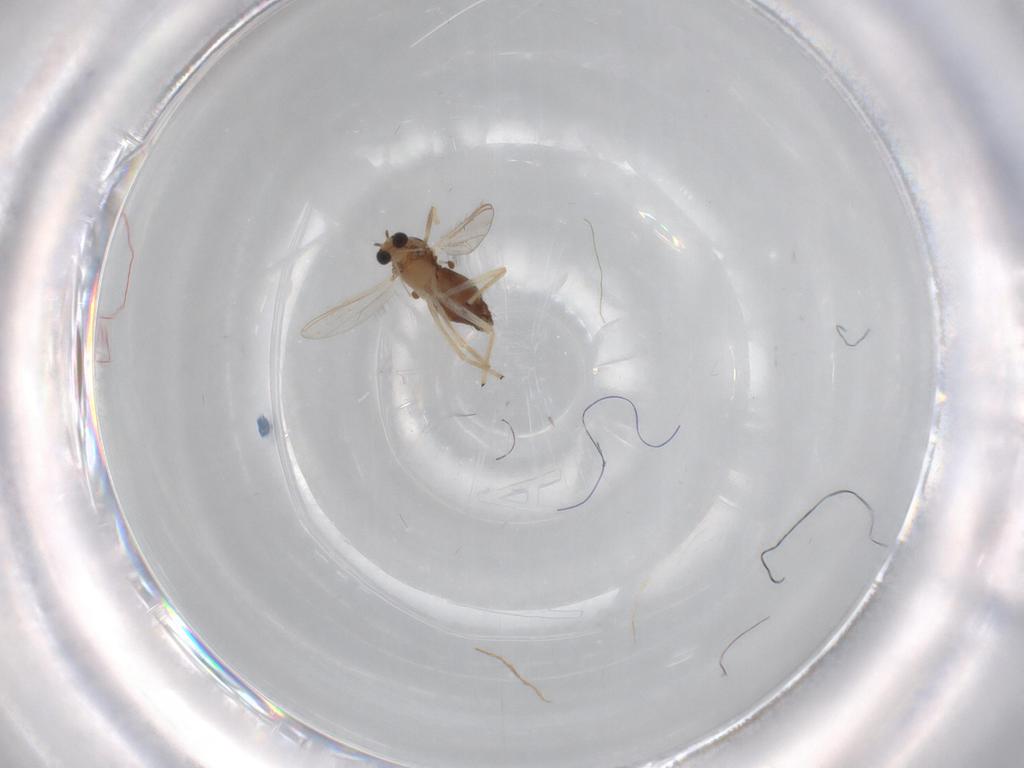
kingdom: Animalia
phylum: Arthropoda
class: Insecta
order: Diptera
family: Chironomidae
